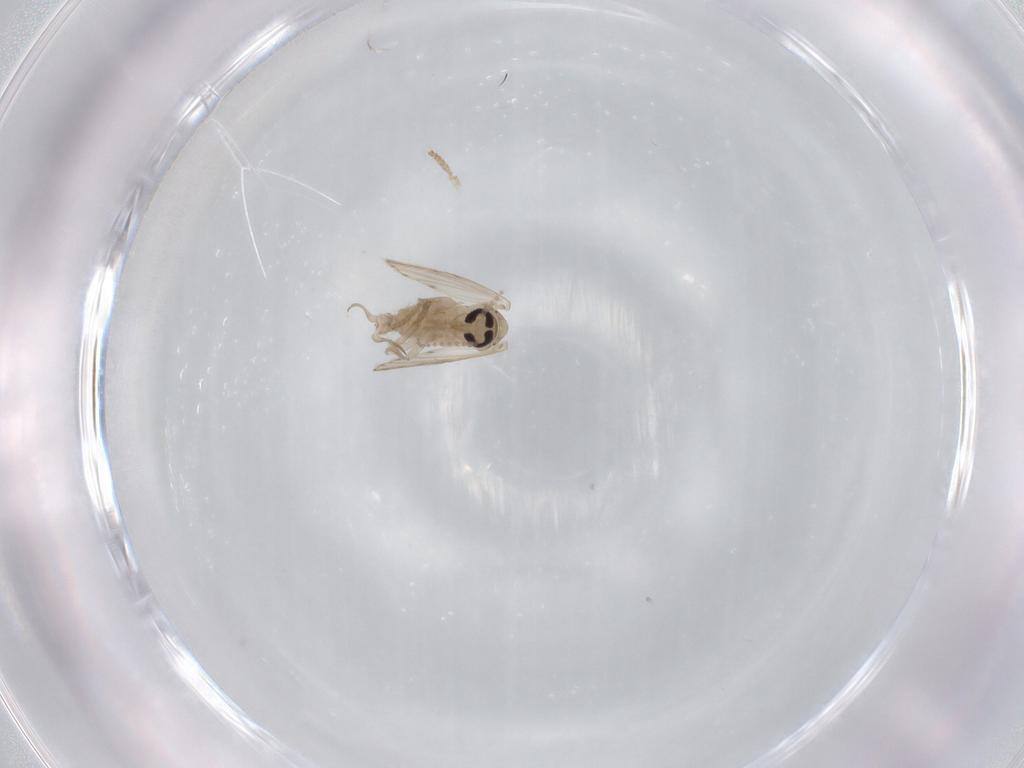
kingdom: Animalia
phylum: Arthropoda
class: Insecta
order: Diptera
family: Psychodidae
